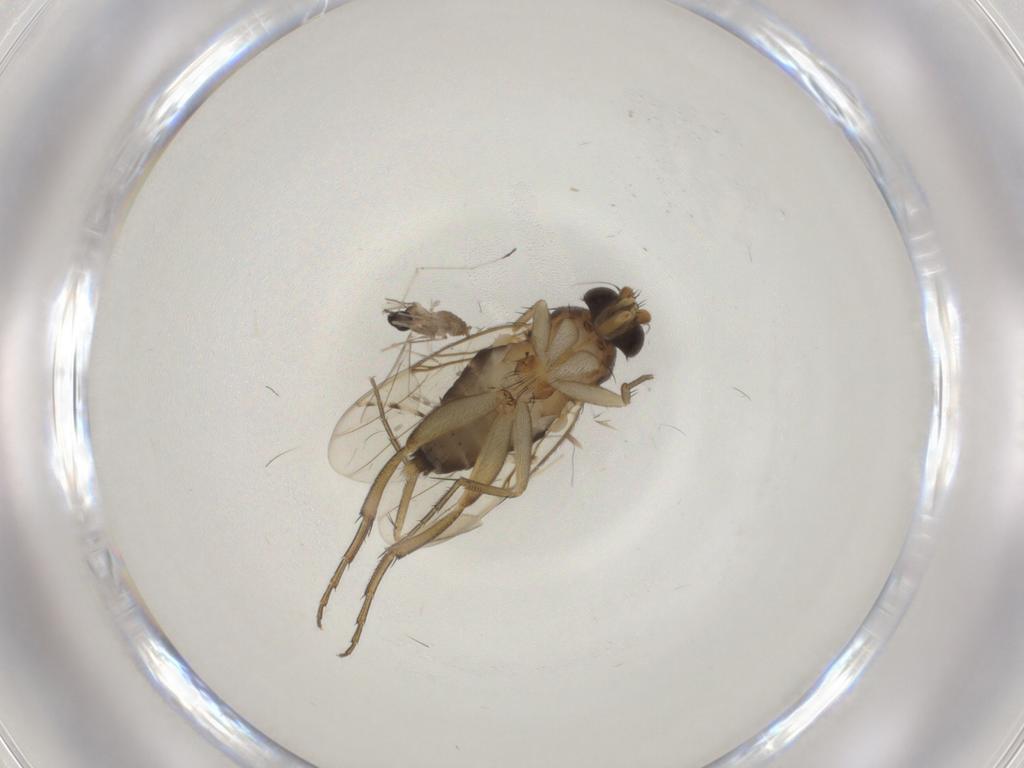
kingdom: Animalia
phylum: Arthropoda
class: Insecta
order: Diptera
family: Phoridae
